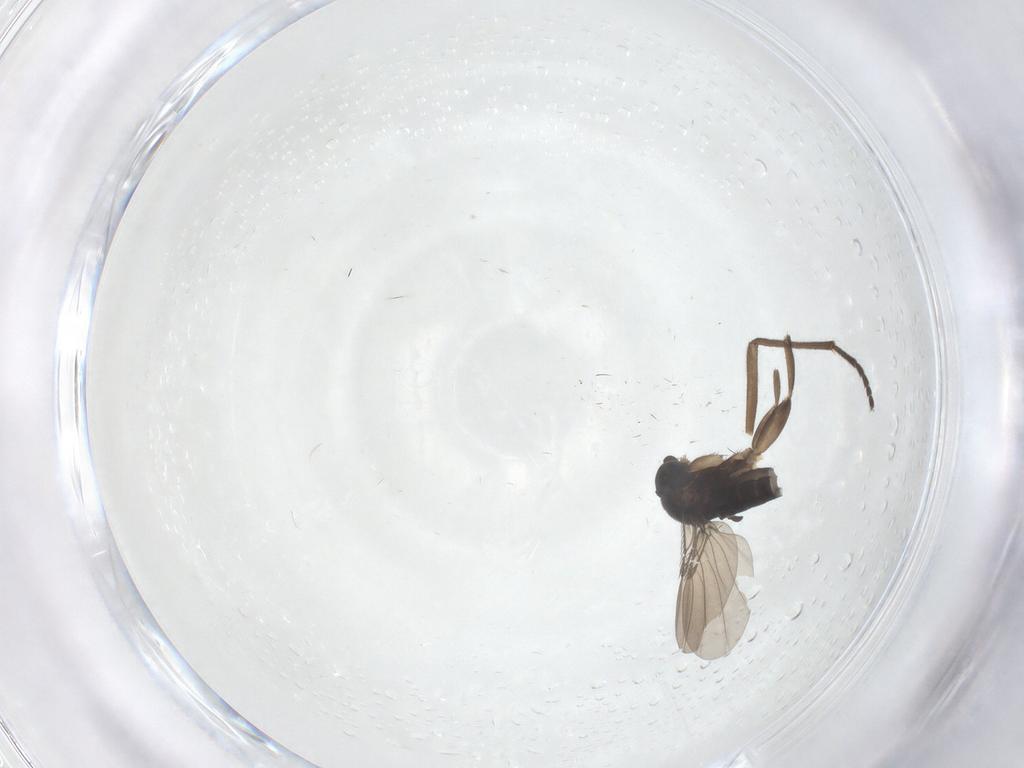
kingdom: Animalia
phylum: Arthropoda
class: Insecta
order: Diptera
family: Phoridae
